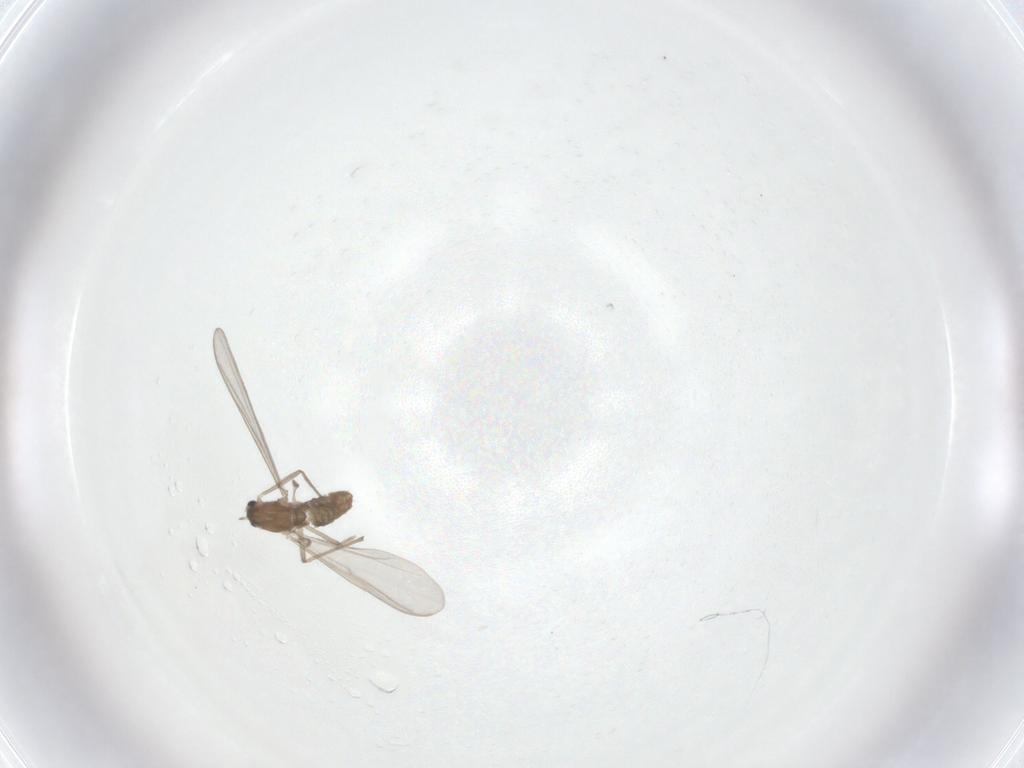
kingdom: Animalia
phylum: Arthropoda
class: Insecta
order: Diptera
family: Chironomidae
